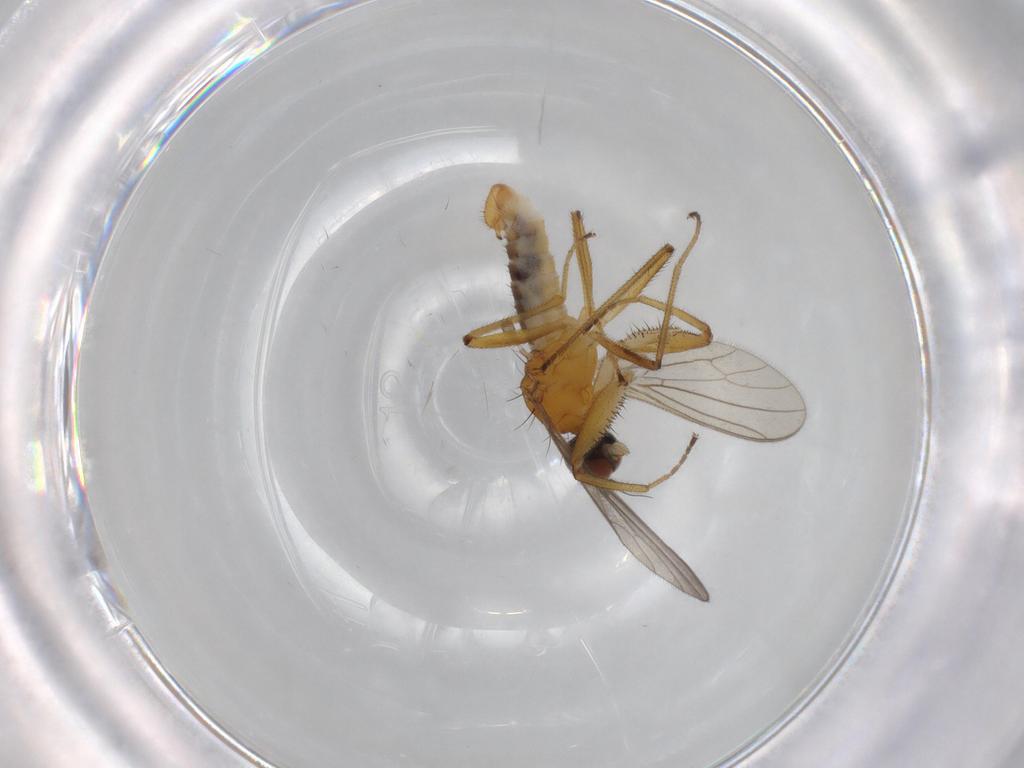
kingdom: Animalia
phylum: Arthropoda
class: Insecta
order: Diptera
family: Empididae
